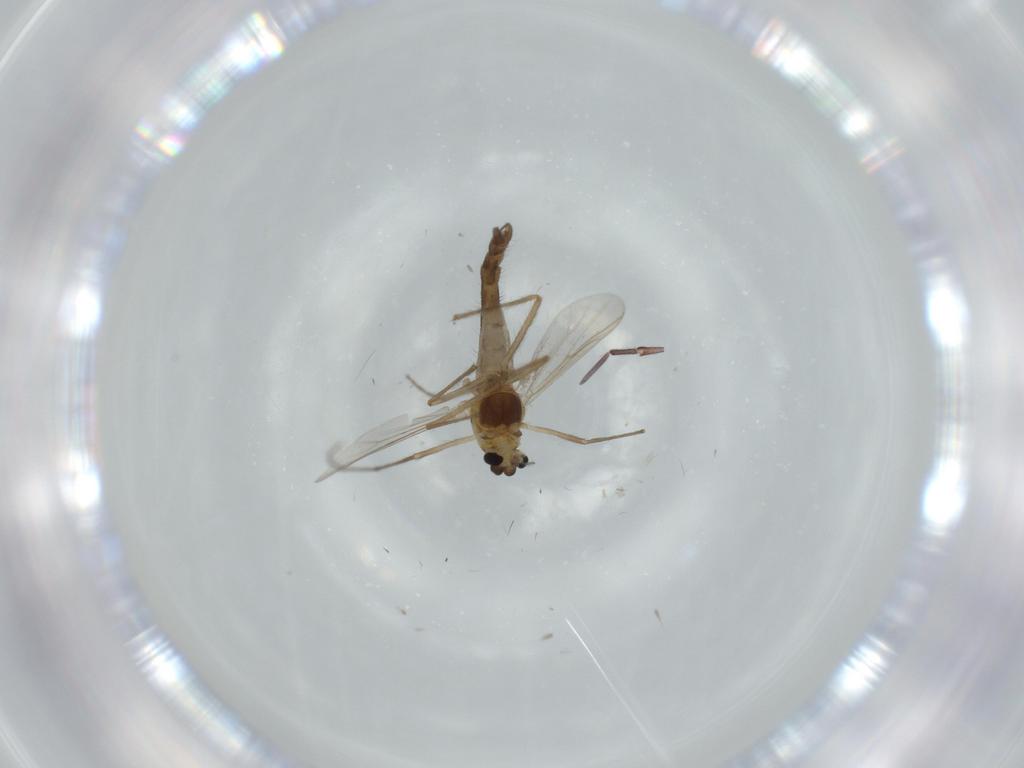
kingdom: Animalia
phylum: Arthropoda
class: Insecta
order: Diptera
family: Chironomidae
